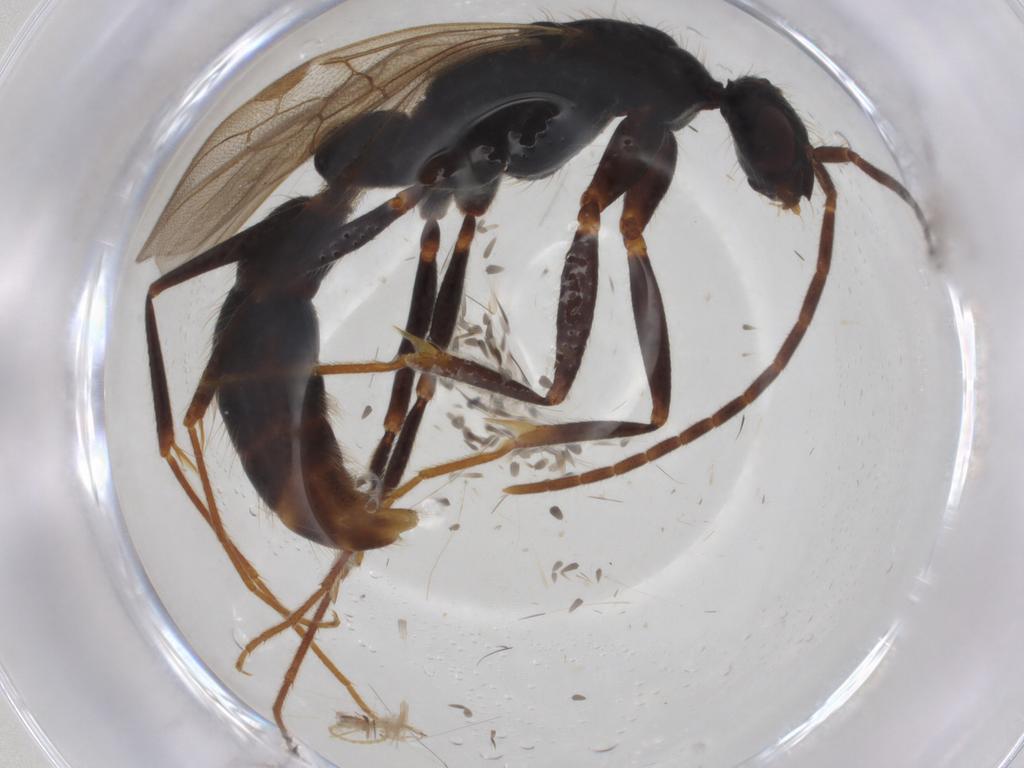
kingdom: Animalia
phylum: Arthropoda
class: Insecta
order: Hymenoptera
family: Formicidae
